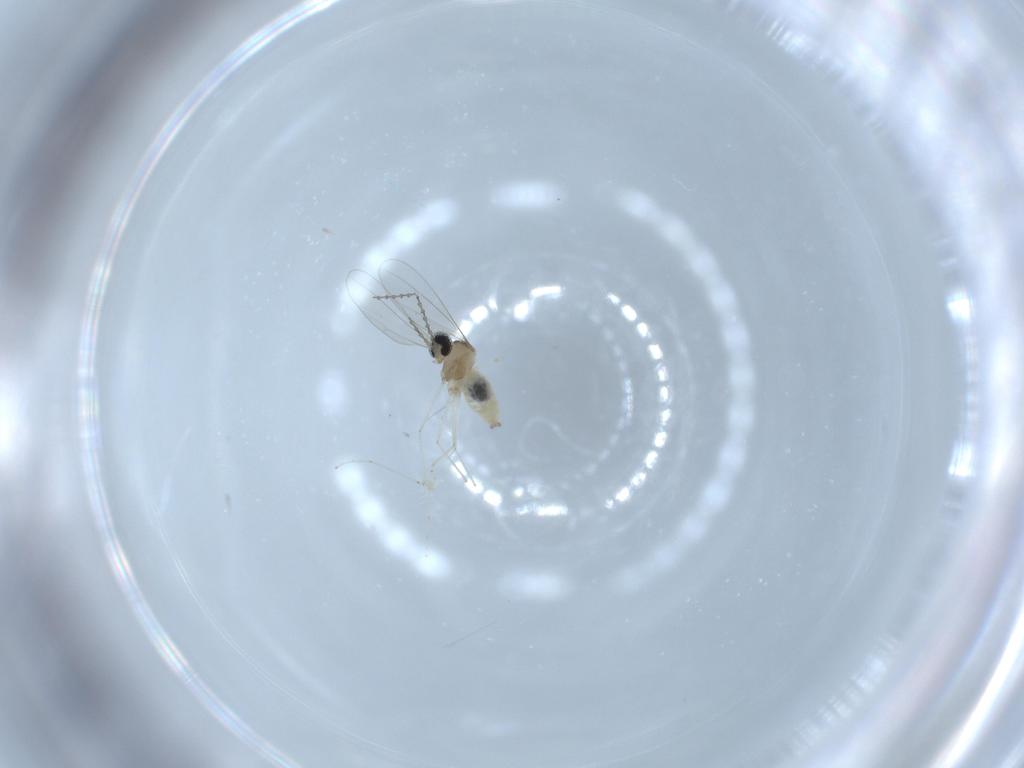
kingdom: Animalia
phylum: Arthropoda
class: Insecta
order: Diptera
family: Cecidomyiidae
